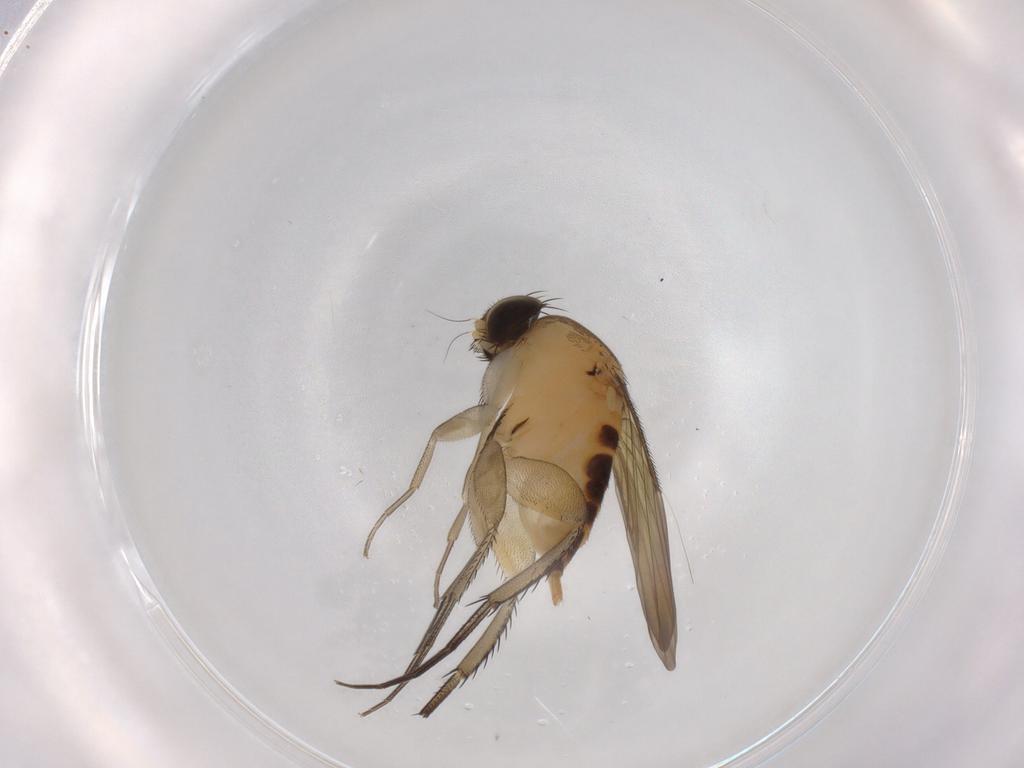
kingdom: Animalia
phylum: Arthropoda
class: Insecta
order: Diptera
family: Phoridae
